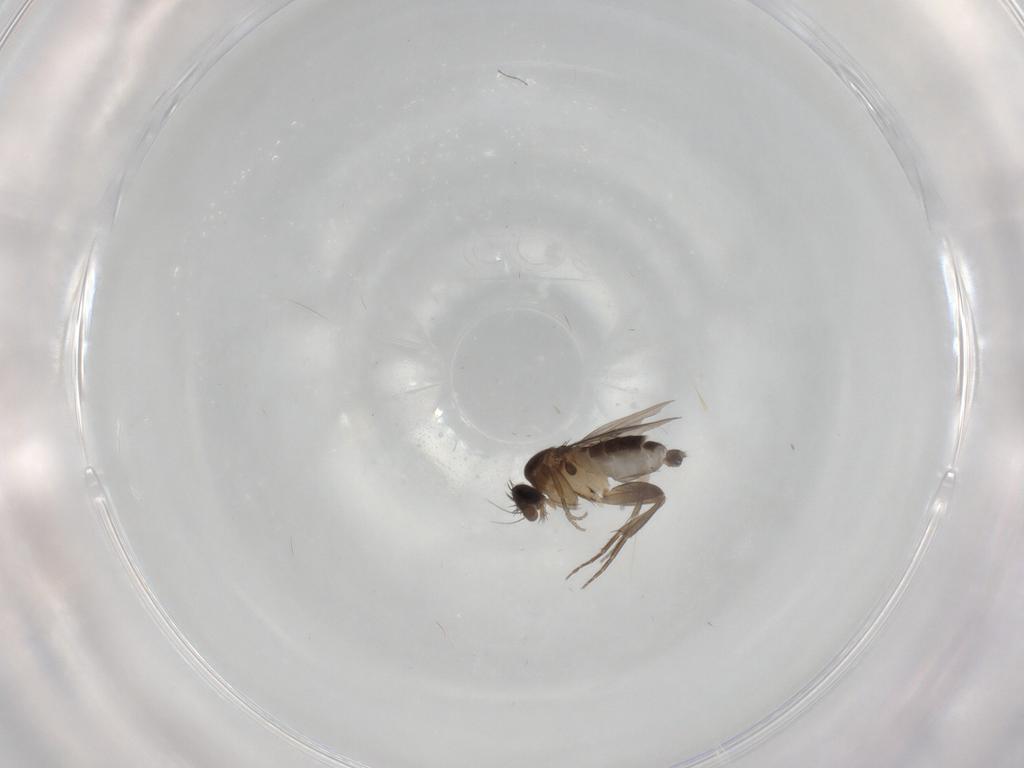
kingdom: Animalia
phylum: Arthropoda
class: Insecta
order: Diptera
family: Phoridae
